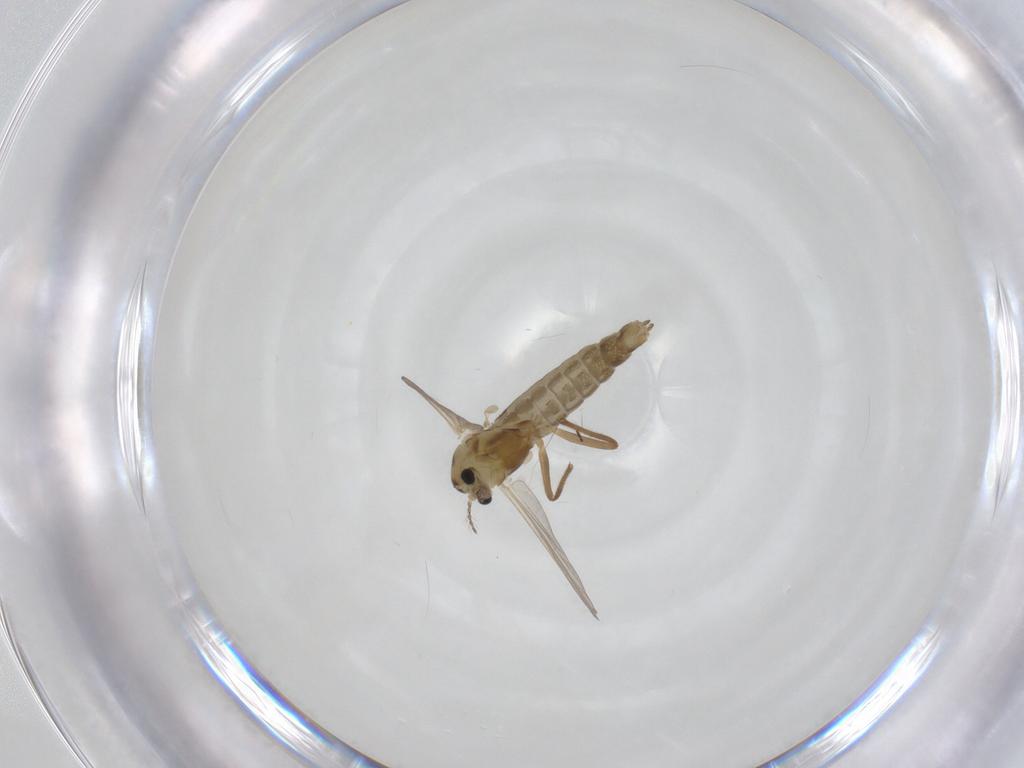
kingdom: Animalia
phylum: Arthropoda
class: Insecta
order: Diptera
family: Chironomidae
